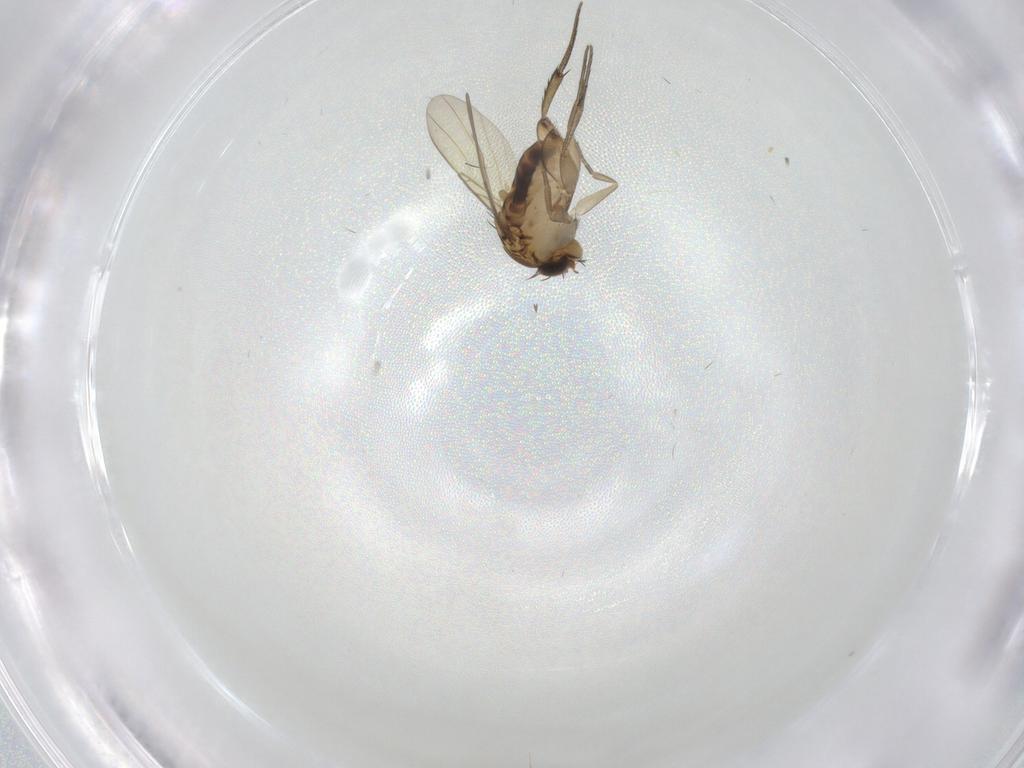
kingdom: Animalia
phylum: Arthropoda
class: Insecta
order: Diptera
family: Phoridae
